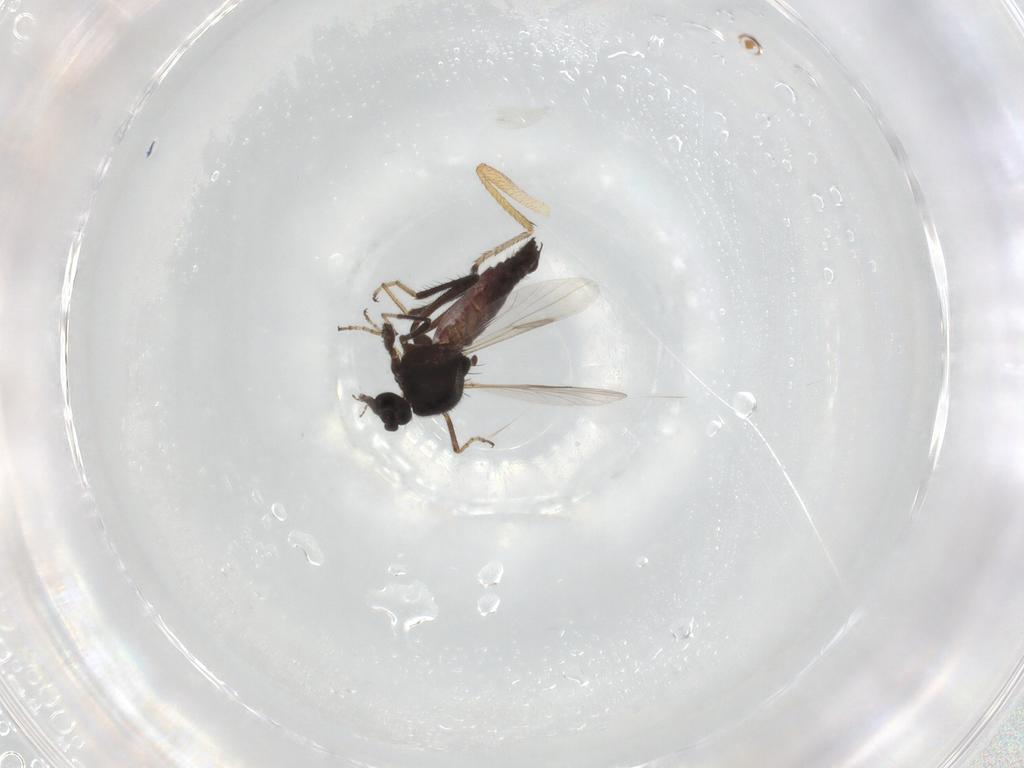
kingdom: Animalia
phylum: Arthropoda
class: Insecta
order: Diptera
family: Ceratopogonidae
